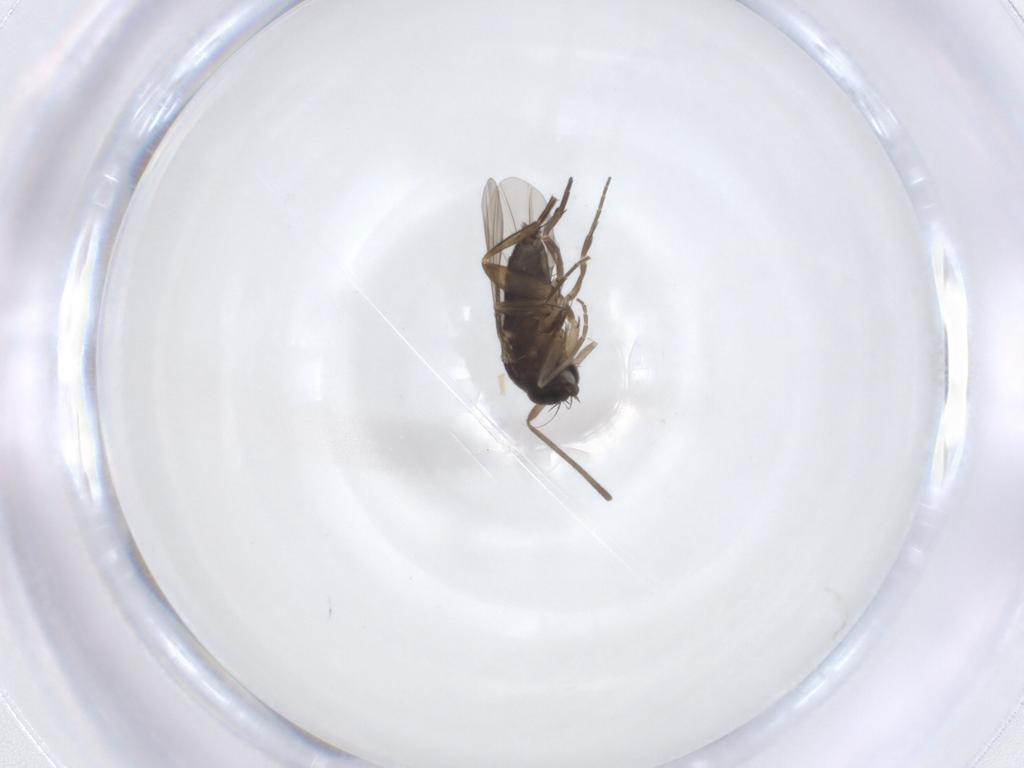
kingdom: Animalia
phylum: Arthropoda
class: Insecta
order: Diptera
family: Phoridae
